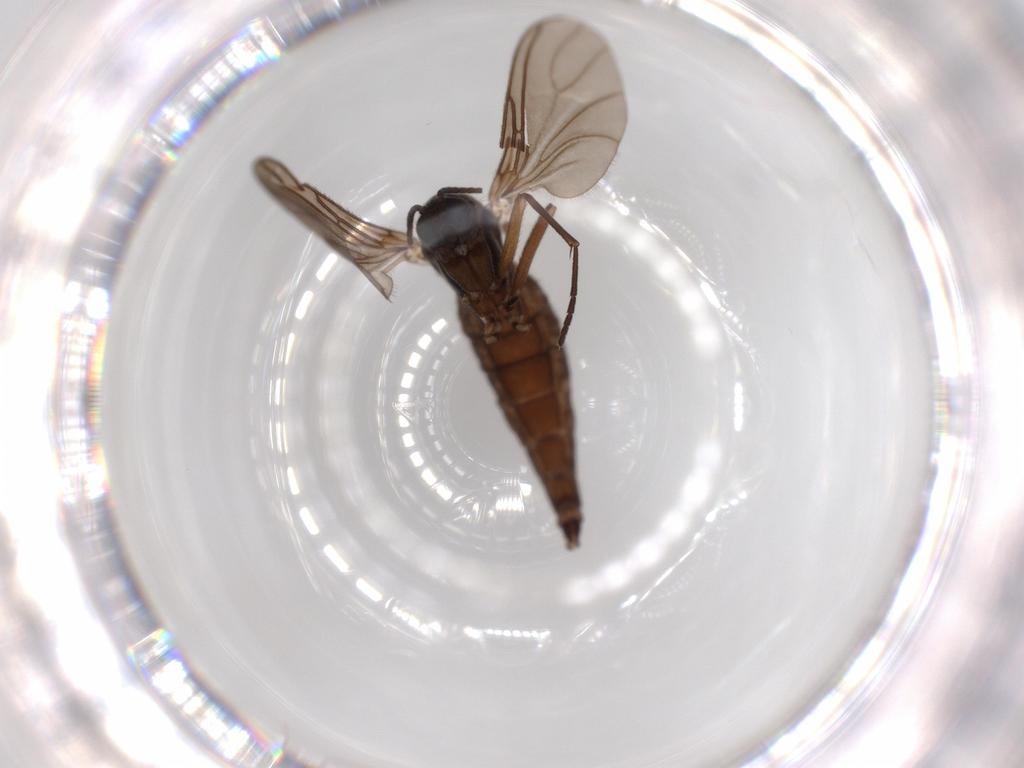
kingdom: Animalia
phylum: Arthropoda
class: Insecta
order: Diptera
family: Sciaridae
